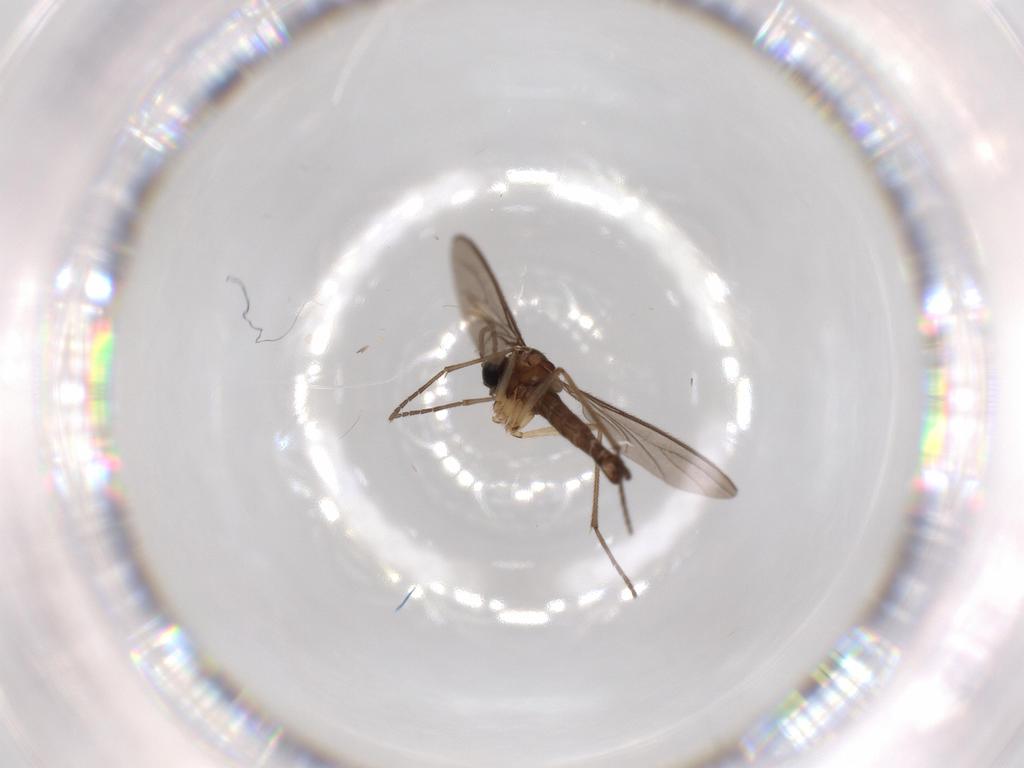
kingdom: Animalia
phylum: Arthropoda
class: Insecta
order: Diptera
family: Sciaridae
